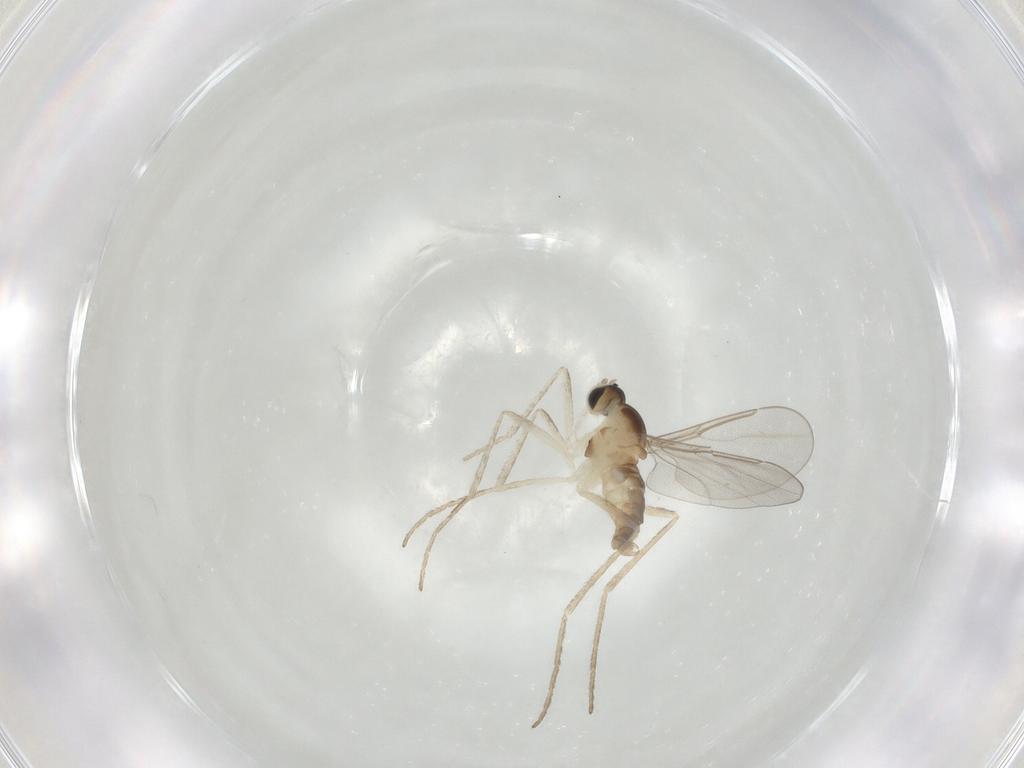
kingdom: Animalia
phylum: Arthropoda
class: Insecta
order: Diptera
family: Cecidomyiidae
